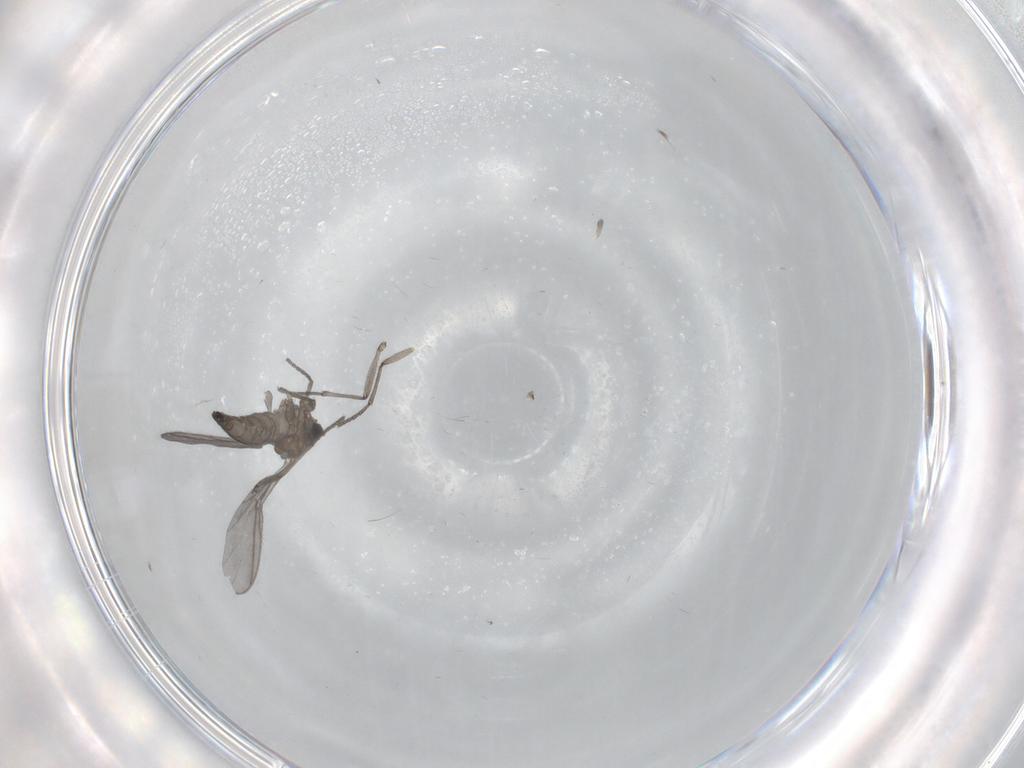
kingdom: Animalia
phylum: Arthropoda
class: Insecta
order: Diptera
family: Sciaridae
